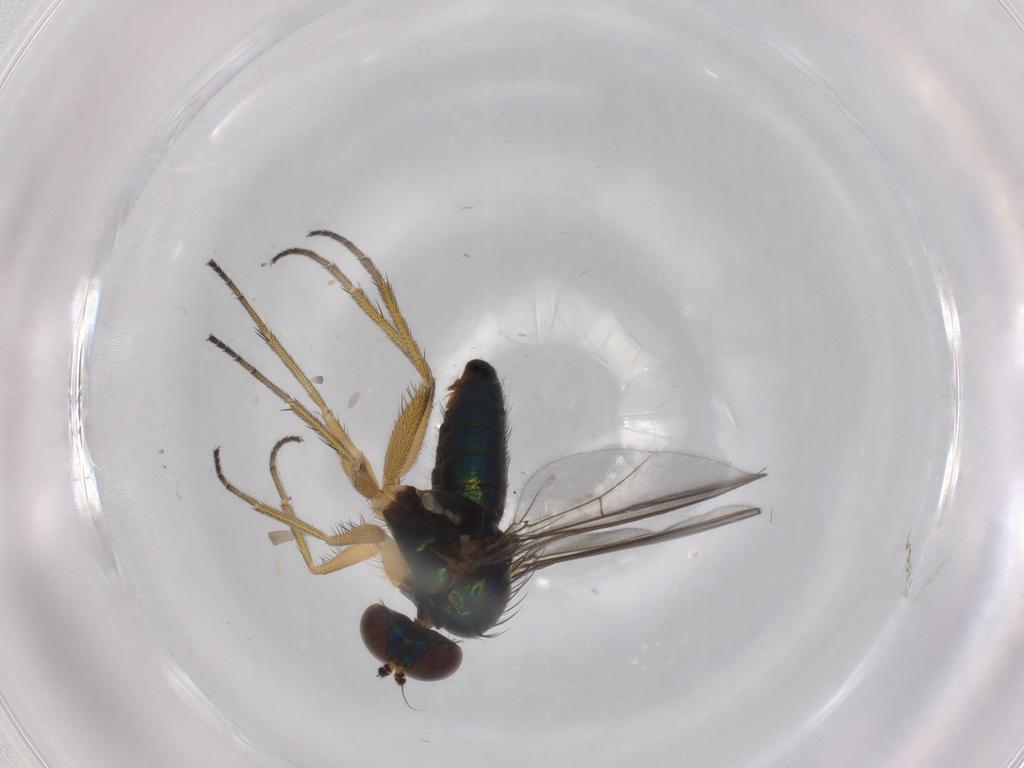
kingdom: Animalia
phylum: Arthropoda
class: Insecta
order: Diptera
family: Dolichopodidae
